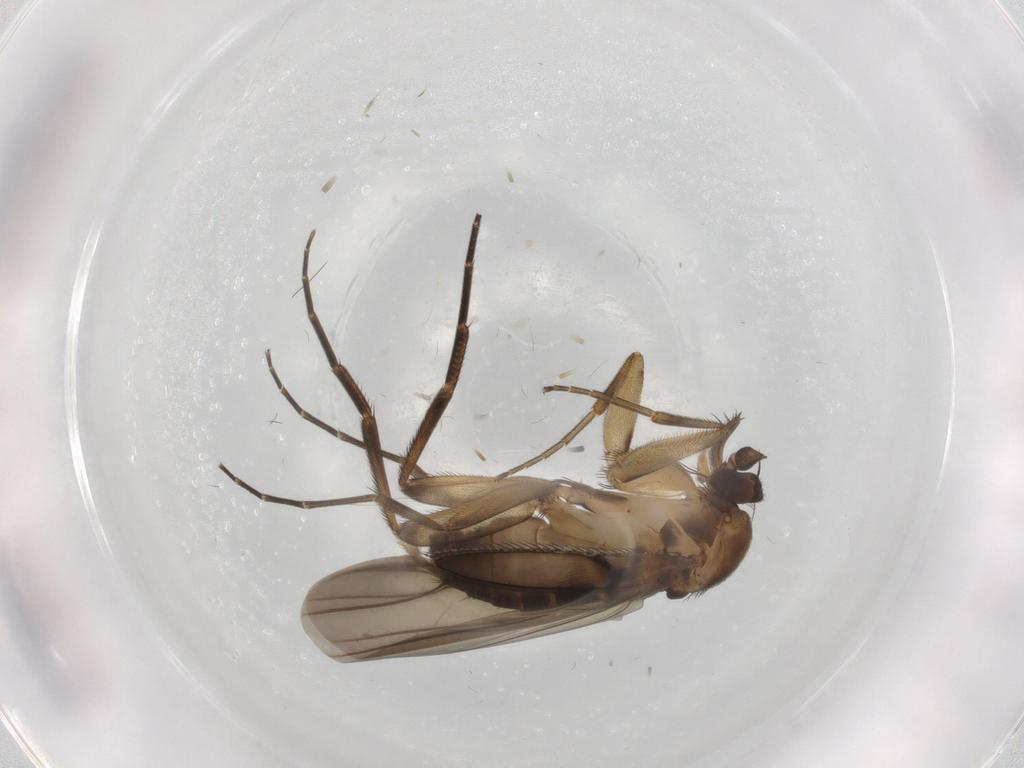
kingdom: Animalia
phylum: Arthropoda
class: Insecta
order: Diptera
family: Phoridae
